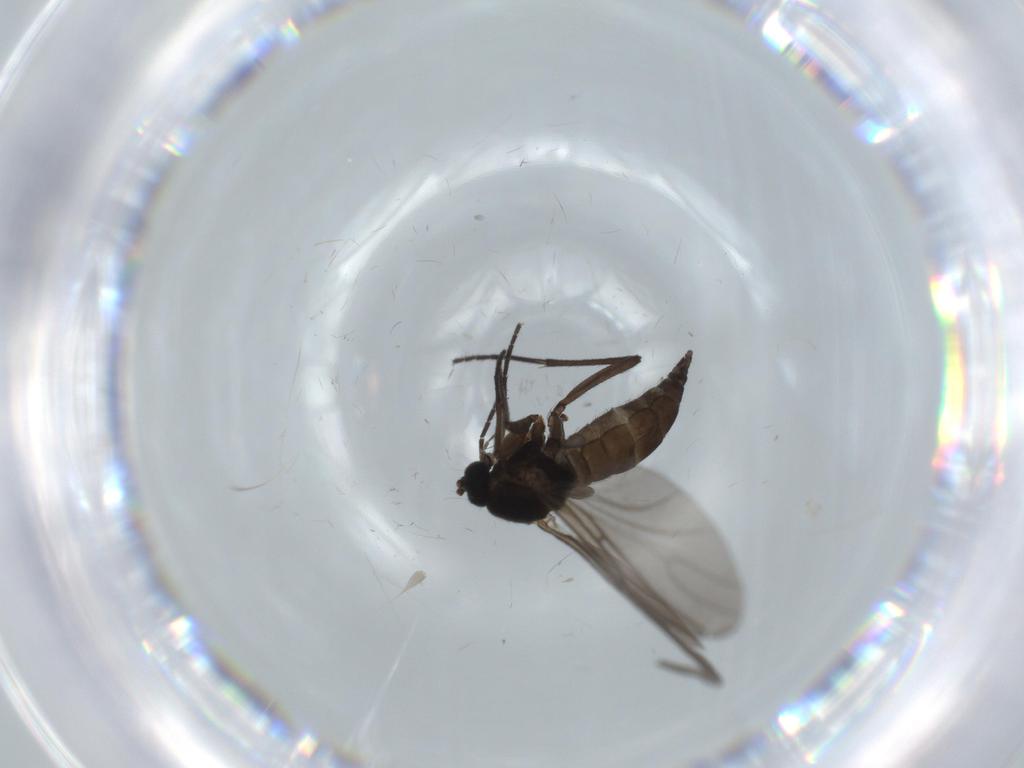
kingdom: Animalia
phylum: Arthropoda
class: Insecta
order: Diptera
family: Sciaridae
